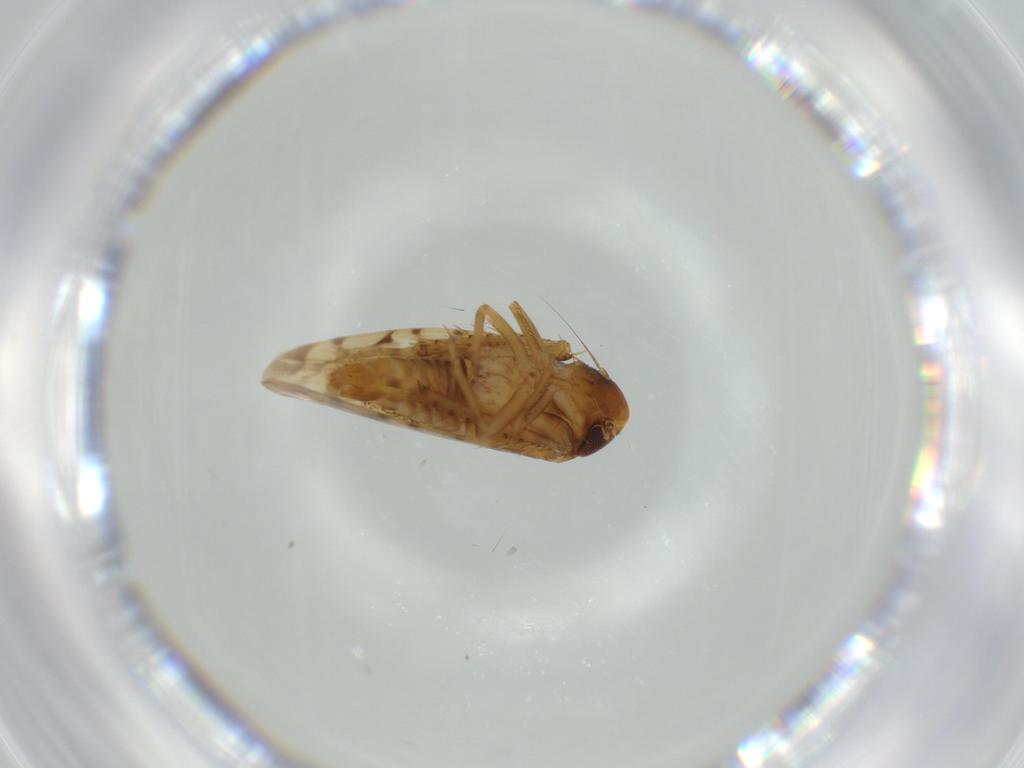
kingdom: Animalia
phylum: Arthropoda
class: Insecta
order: Hemiptera
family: Cicadellidae
